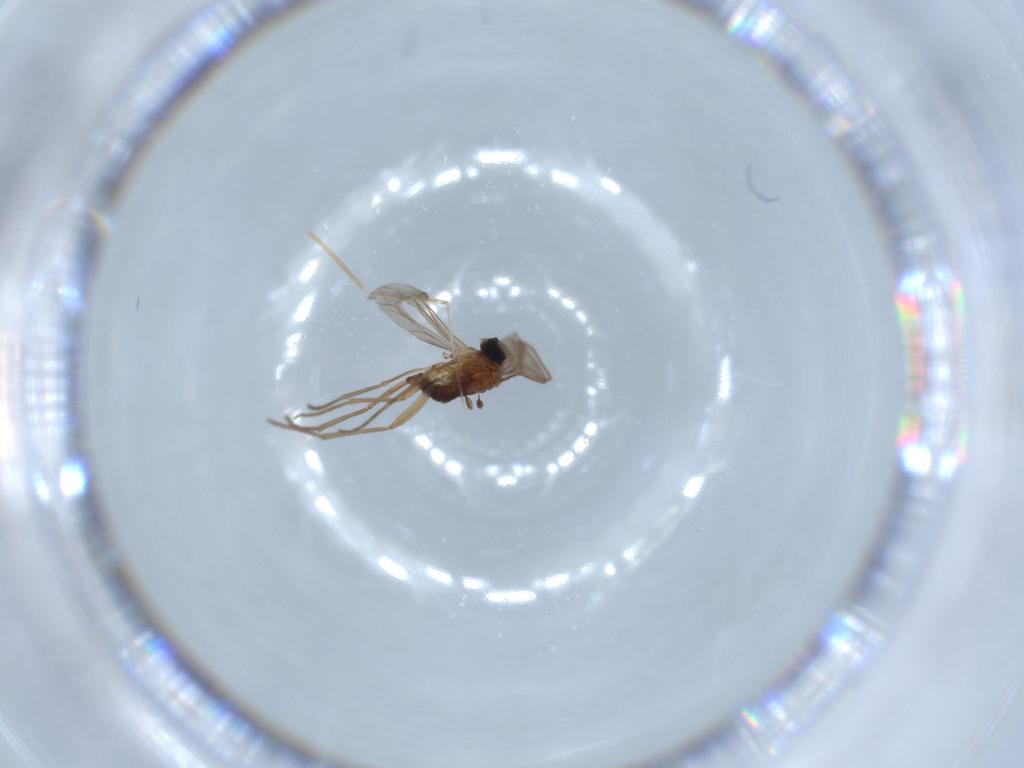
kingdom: Animalia
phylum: Arthropoda
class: Insecta
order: Diptera
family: Sciaridae
